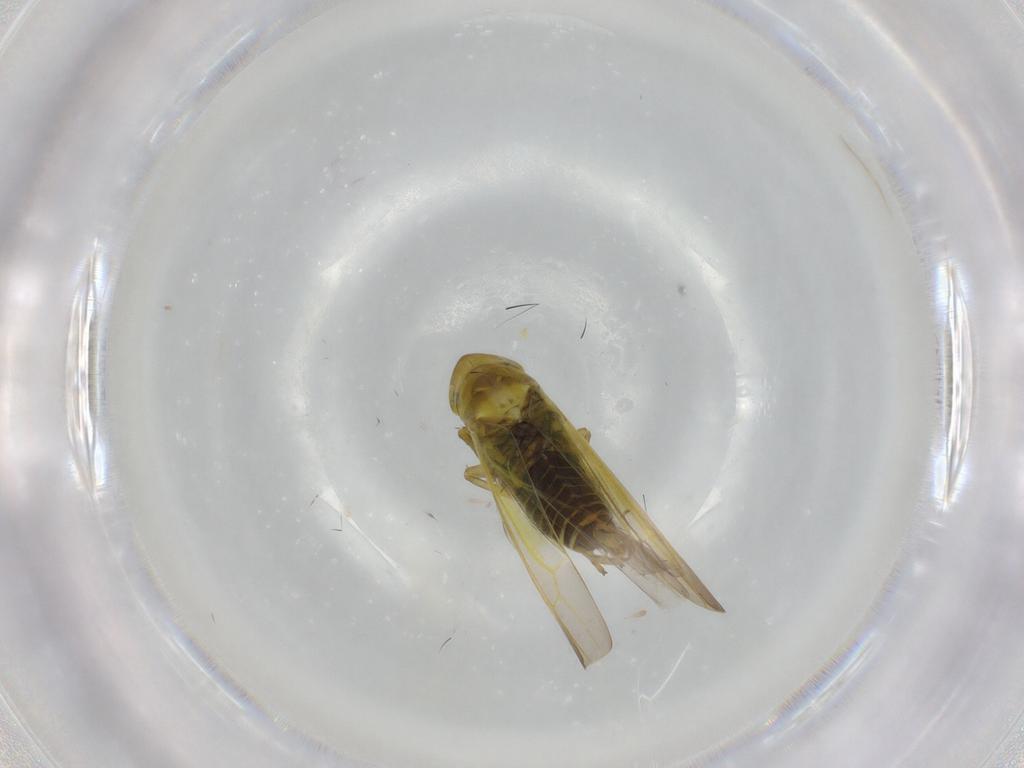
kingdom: Animalia
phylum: Arthropoda
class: Insecta
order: Hemiptera
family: Cicadellidae
